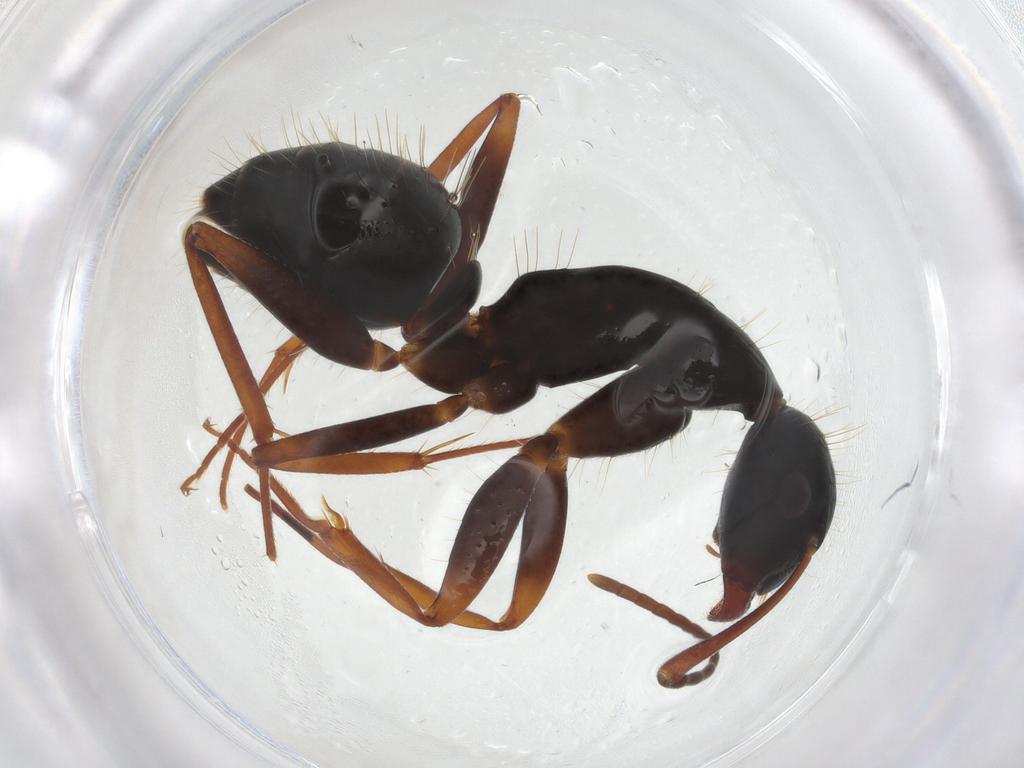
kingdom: Animalia
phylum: Arthropoda
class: Insecta
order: Hymenoptera
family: Formicidae
